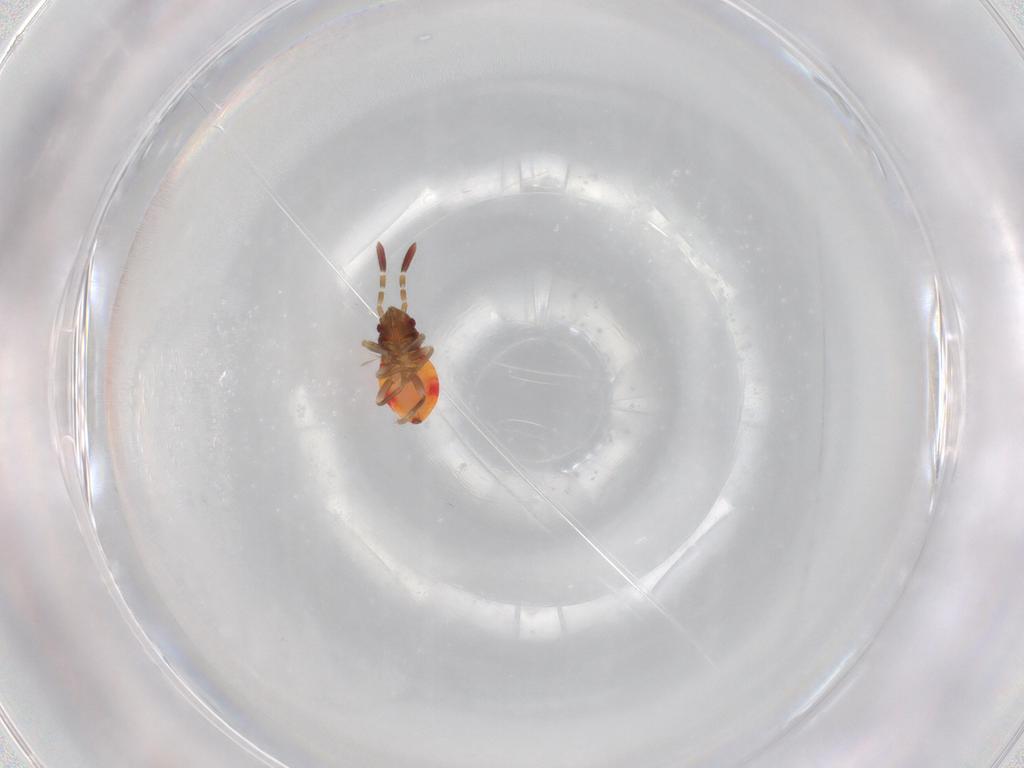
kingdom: Animalia
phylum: Arthropoda
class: Insecta
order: Hemiptera
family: Rhyparochromidae
